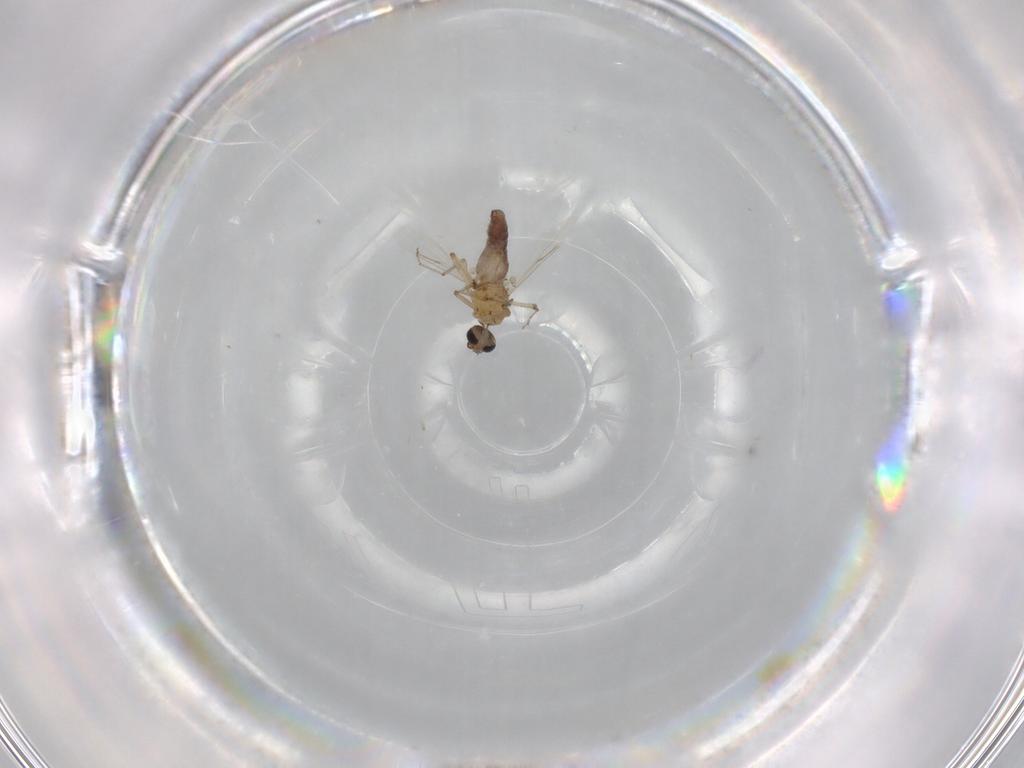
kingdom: Animalia
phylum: Arthropoda
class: Insecta
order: Diptera
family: Ceratopogonidae
